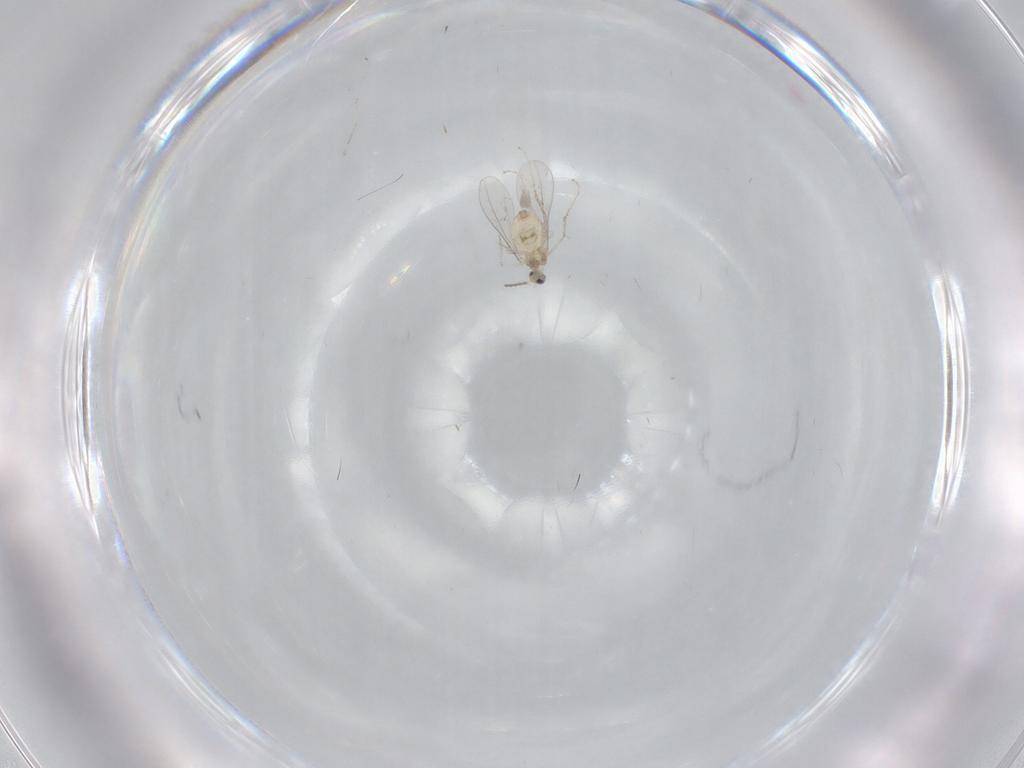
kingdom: Animalia
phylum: Arthropoda
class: Insecta
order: Diptera
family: Cecidomyiidae
